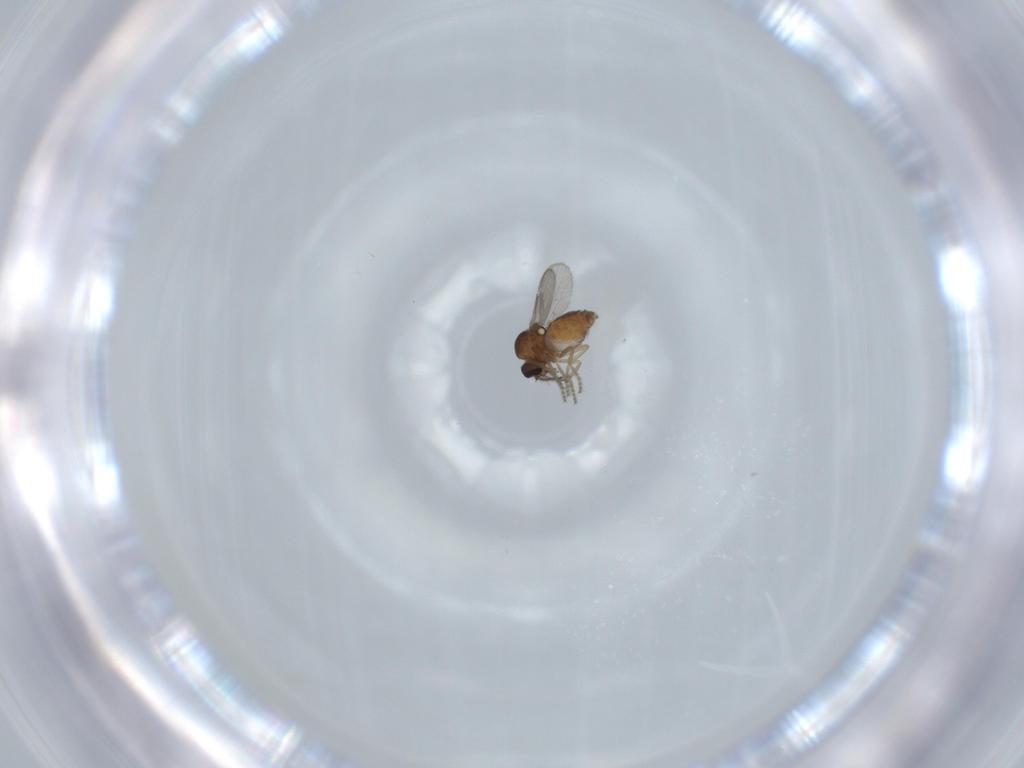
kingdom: Animalia
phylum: Arthropoda
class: Insecta
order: Diptera
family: Ceratopogonidae
